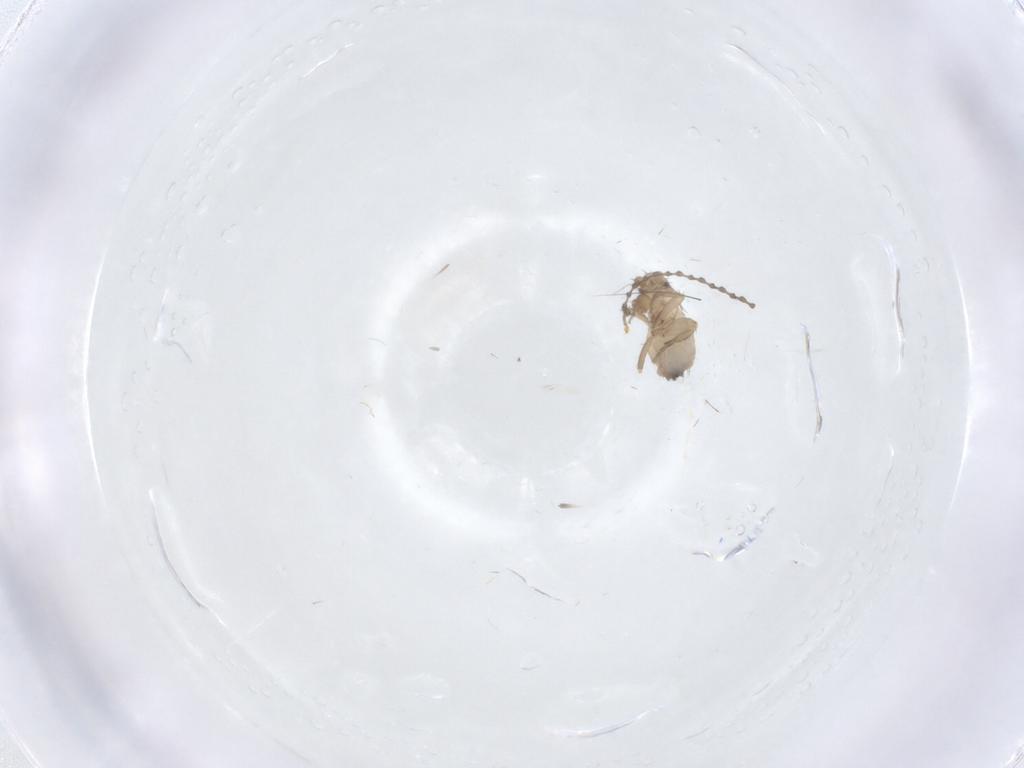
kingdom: Animalia
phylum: Arthropoda
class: Insecta
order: Diptera
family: Phoridae
